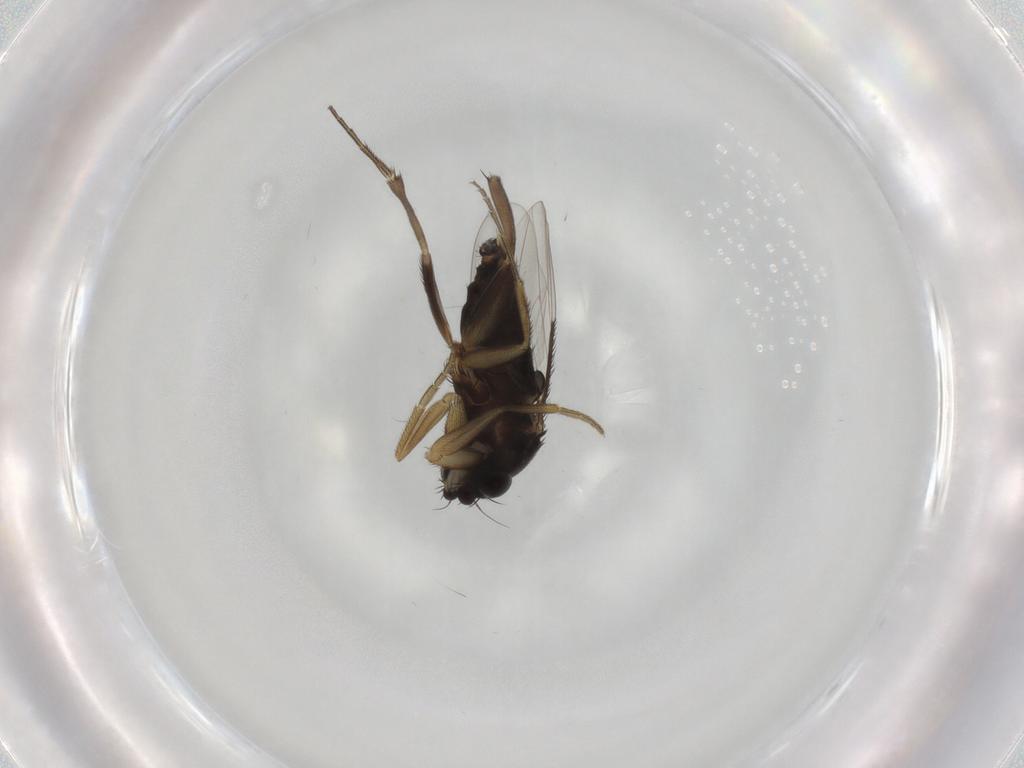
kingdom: Animalia
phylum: Arthropoda
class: Insecta
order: Diptera
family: Phoridae
